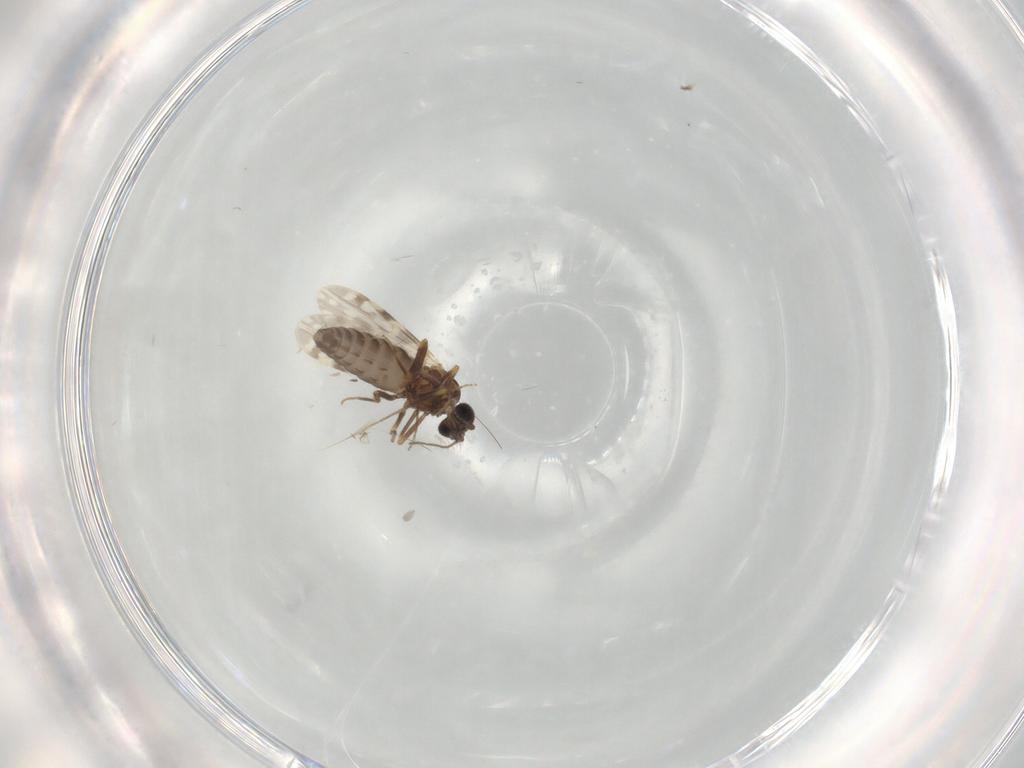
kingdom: Animalia
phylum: Arthropoda
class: Insecta
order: Diptera
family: Ceratopogonidae
